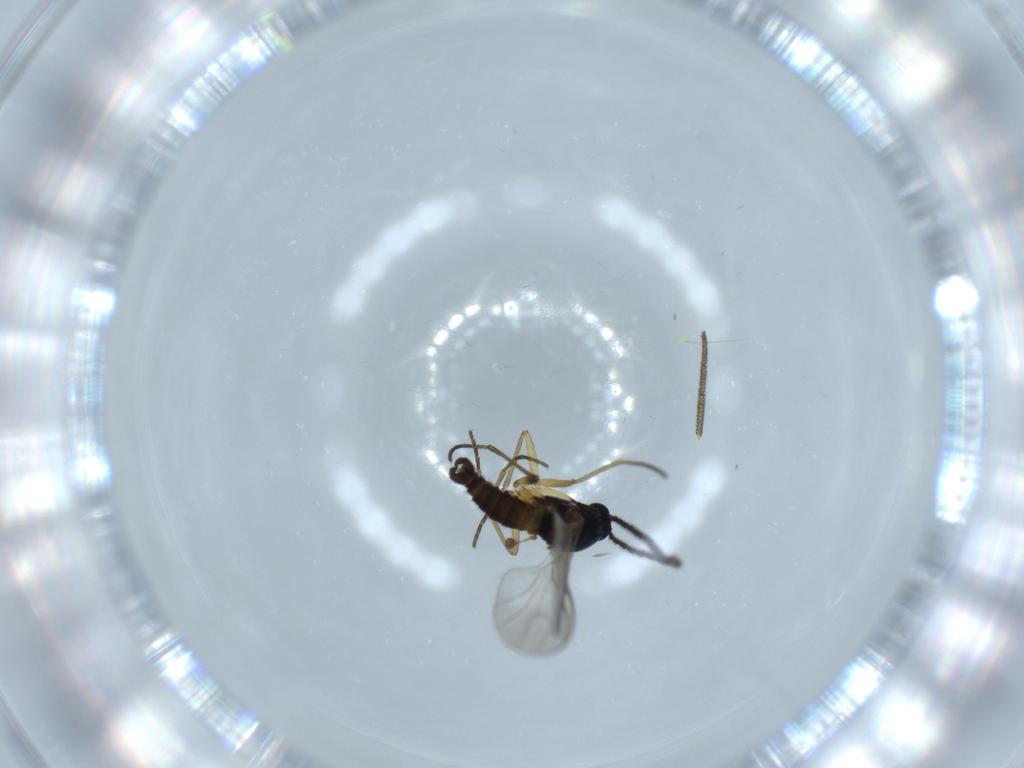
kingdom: Animalia
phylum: Arthropoda
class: Insecta
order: Diptera
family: Sciaridae
